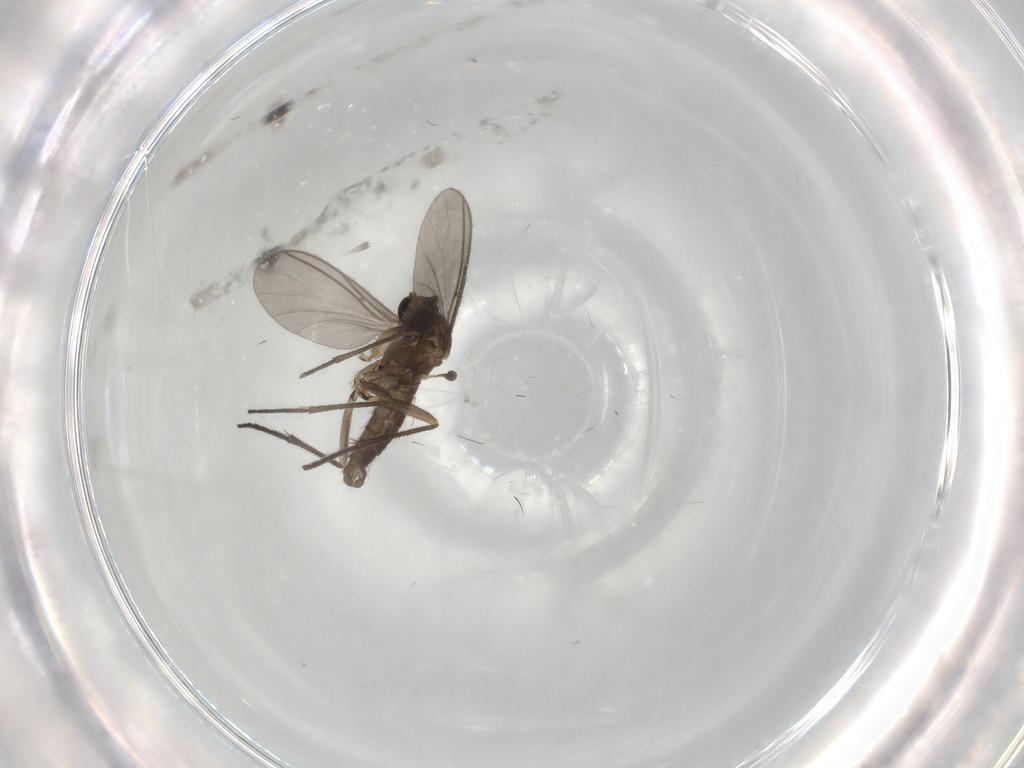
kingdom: Animalia
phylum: Arthropoda
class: Insecta
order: Diptera
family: Sciaridae
